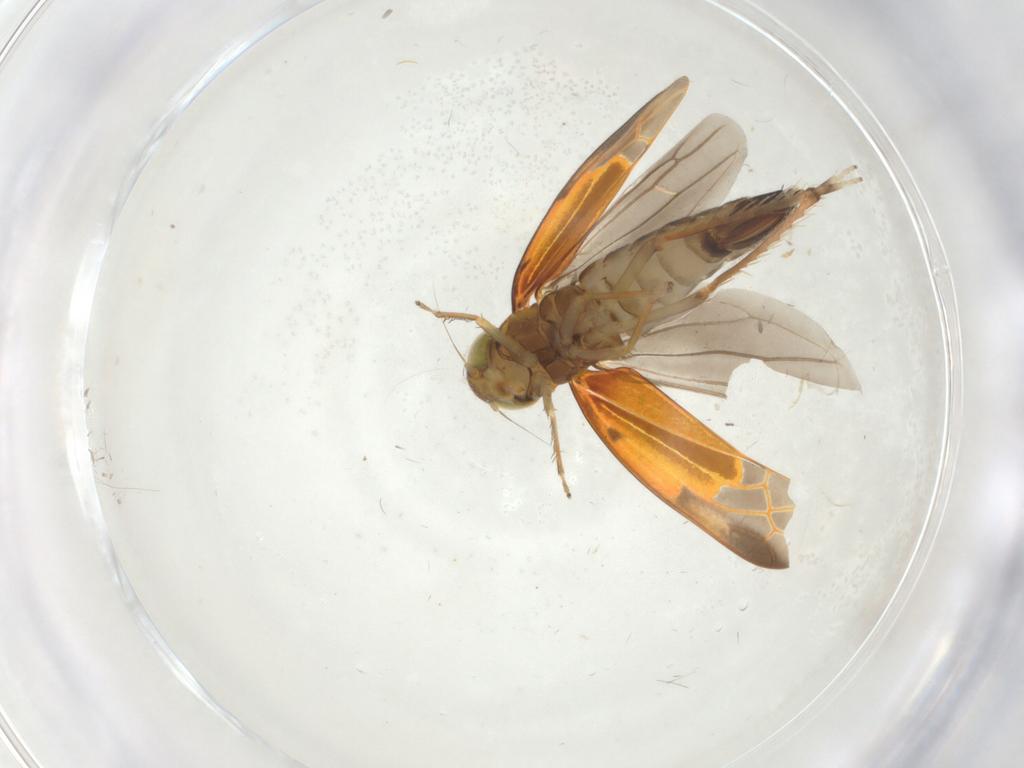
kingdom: Animalia
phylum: Arthropoda
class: Insecta
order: Hemiptera
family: Cicadellidae
